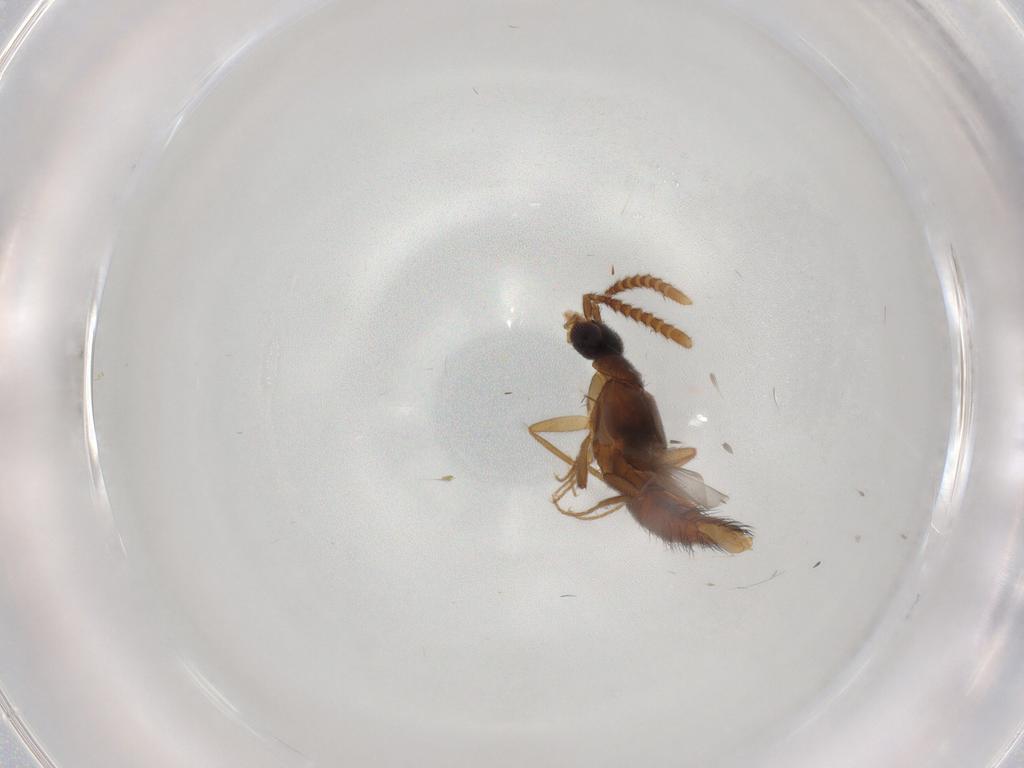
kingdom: Animalia
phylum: Arthropoda
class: Insecta
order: Coleoptera
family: Staphylinidae
